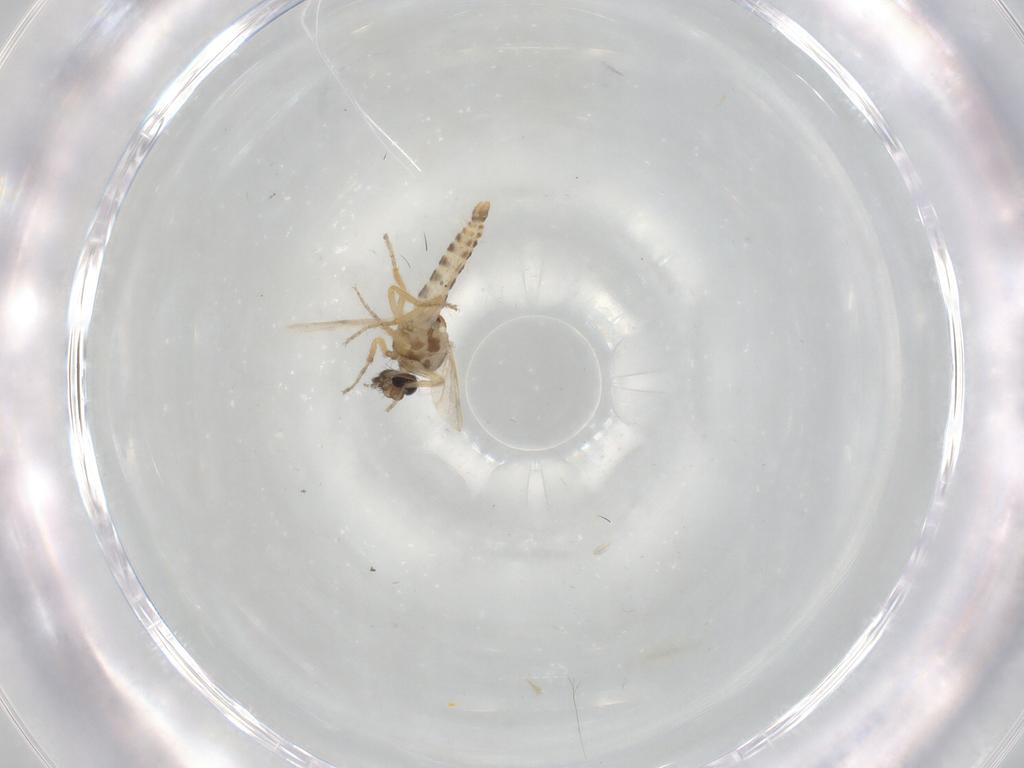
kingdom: Animalia
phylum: Arthropoda
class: Insecta
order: Diptera
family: Ceratopogonidae
